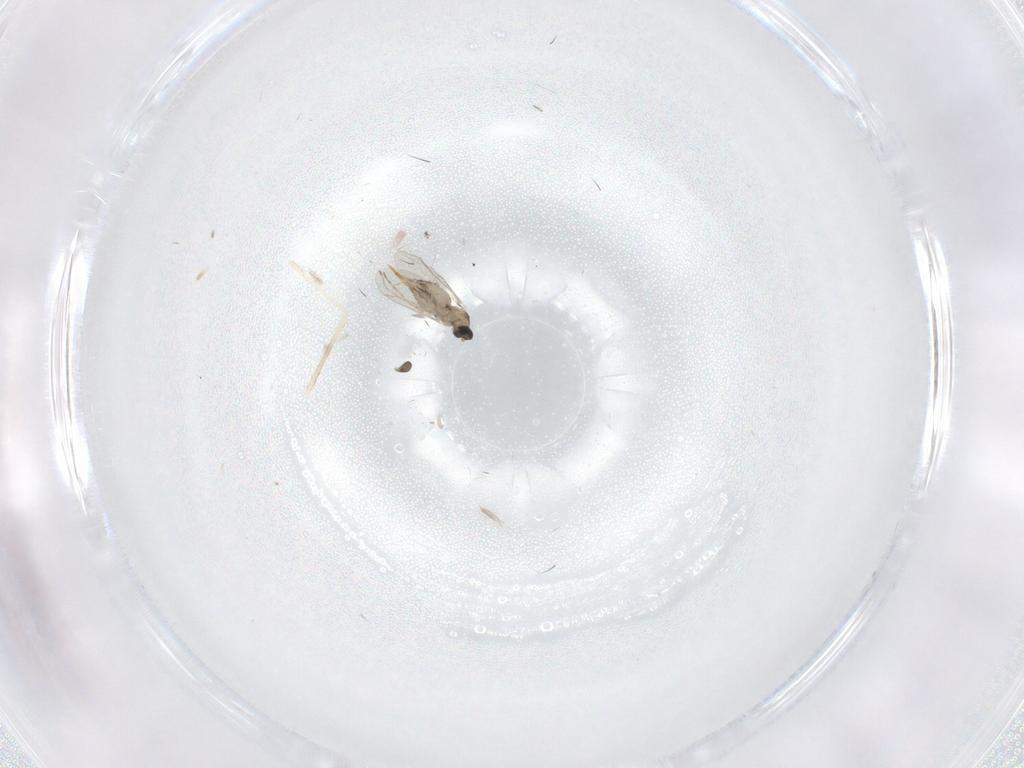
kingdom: Animalia
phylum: Arthropoda
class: Insecta
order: Diptera
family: Cecidomyiidae
